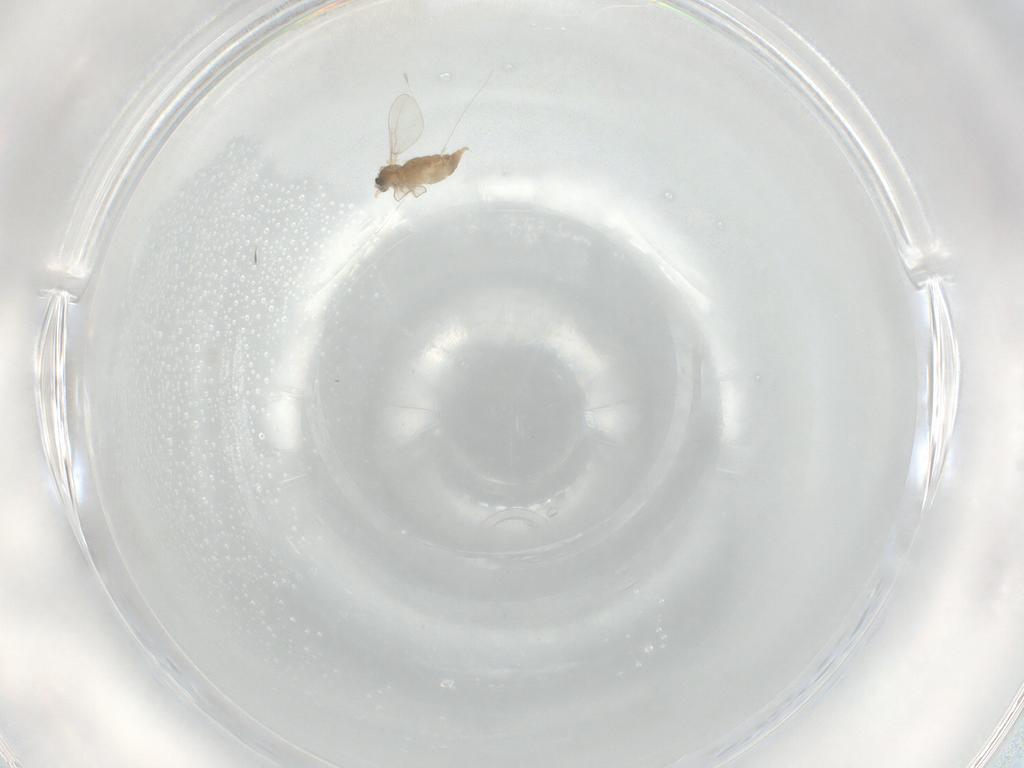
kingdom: Animalia
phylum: Arthropoda
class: Insecta
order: Diptera
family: Cecidomyiidae
